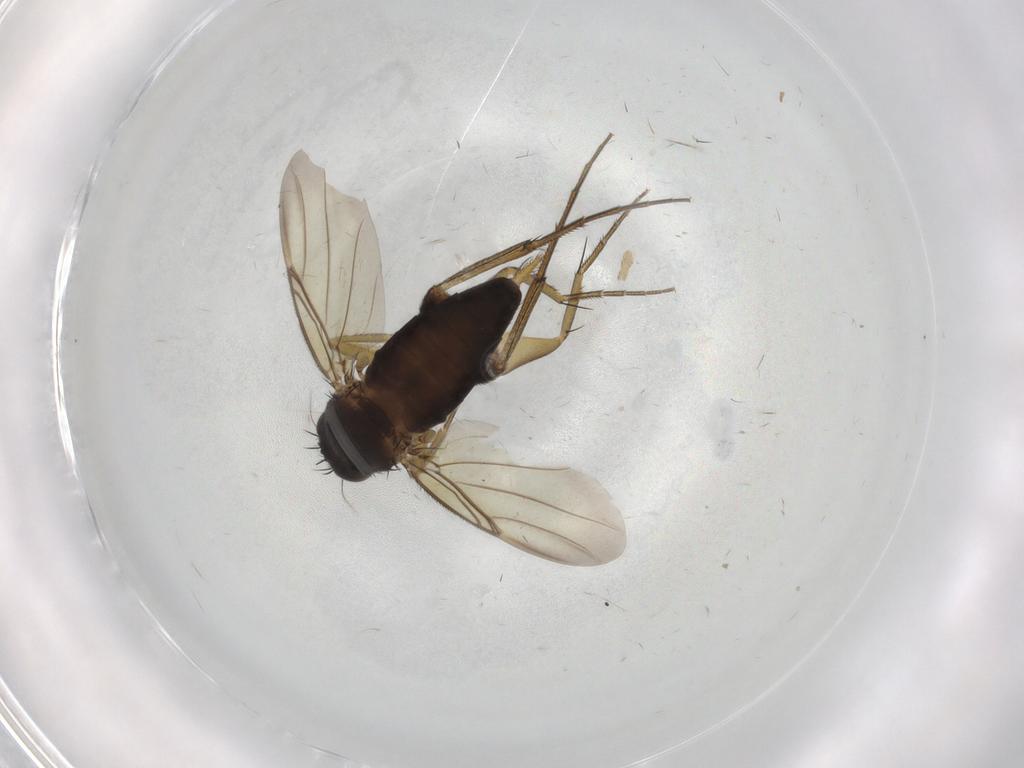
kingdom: Animalia
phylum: Arthropoda
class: Insecta
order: Diptera
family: Phoridae
